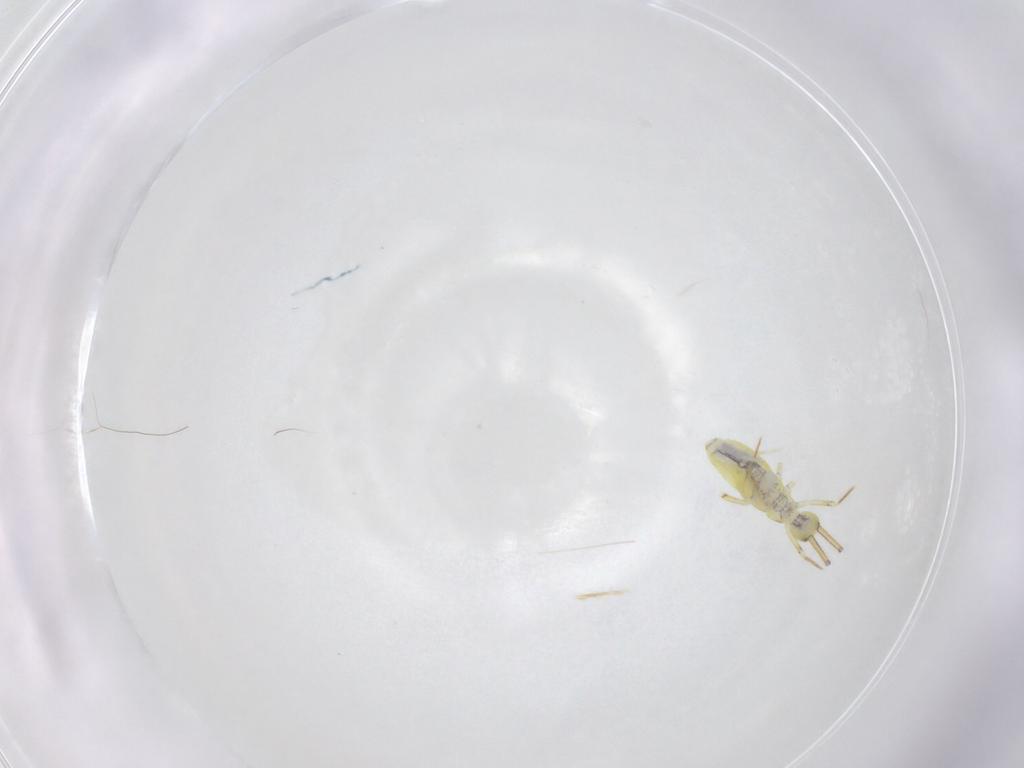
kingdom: Animalia
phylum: Arthropoda
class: Collembola
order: Entomobryomorpha
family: Paronellidae
